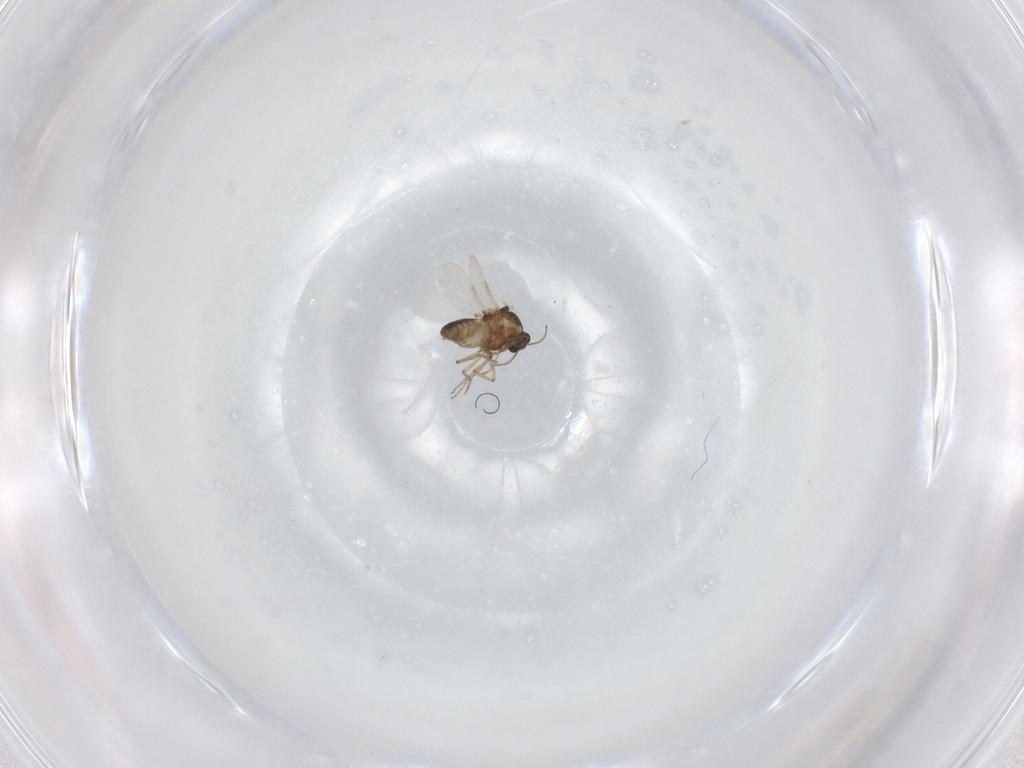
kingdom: Animalia
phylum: Arthropoda
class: Insecta
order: Diptera
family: Ceratopogonidae
